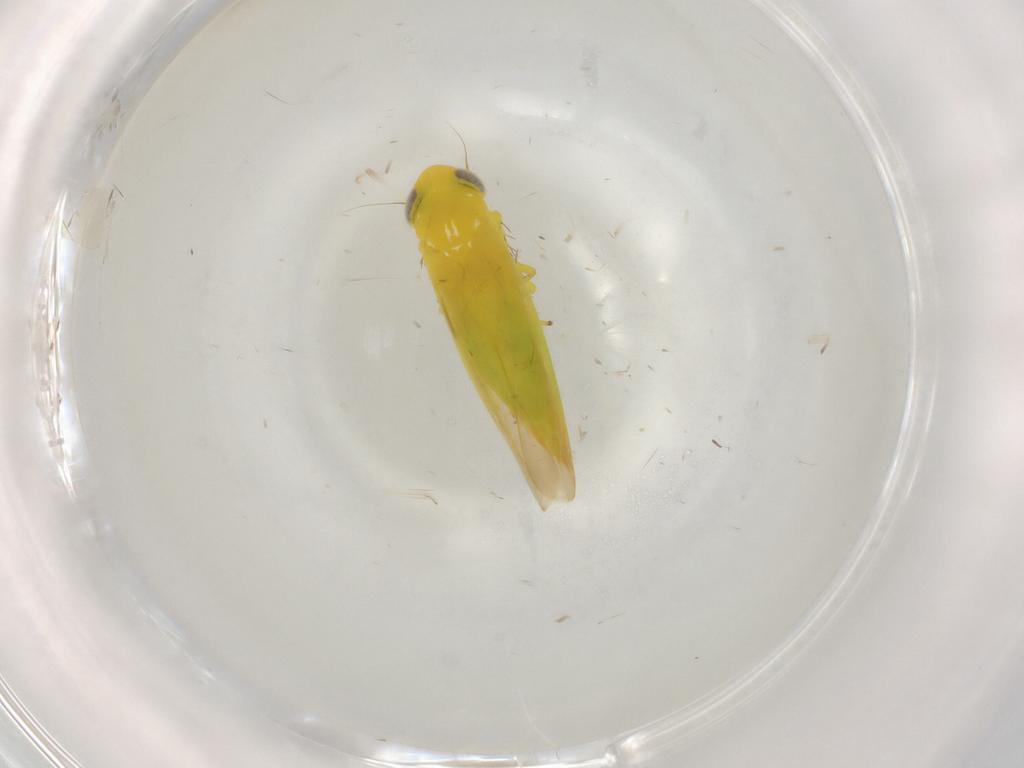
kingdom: Animalia
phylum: Arthropoda
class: Insecta
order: Hemiptera
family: Cicadellidae
